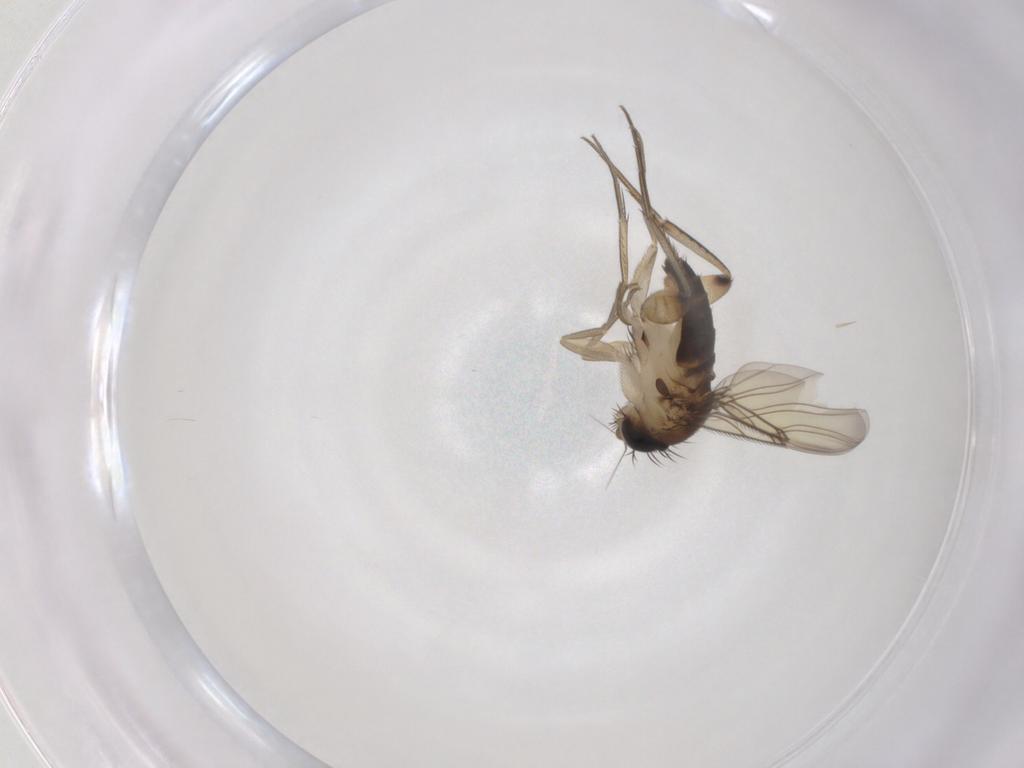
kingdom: Animalia
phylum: Arthropoda
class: Insecta
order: Diptera
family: Phoridae
